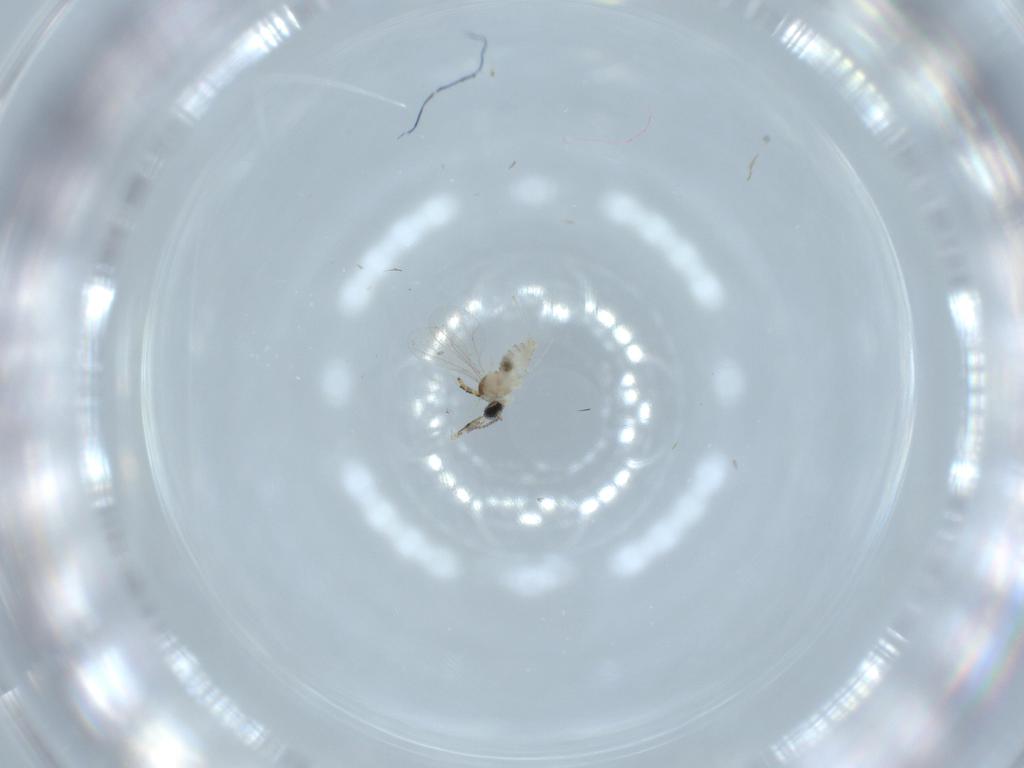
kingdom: Animalia
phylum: Arthropoda
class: Insecta
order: Diptera
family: Cecidomyiidae
